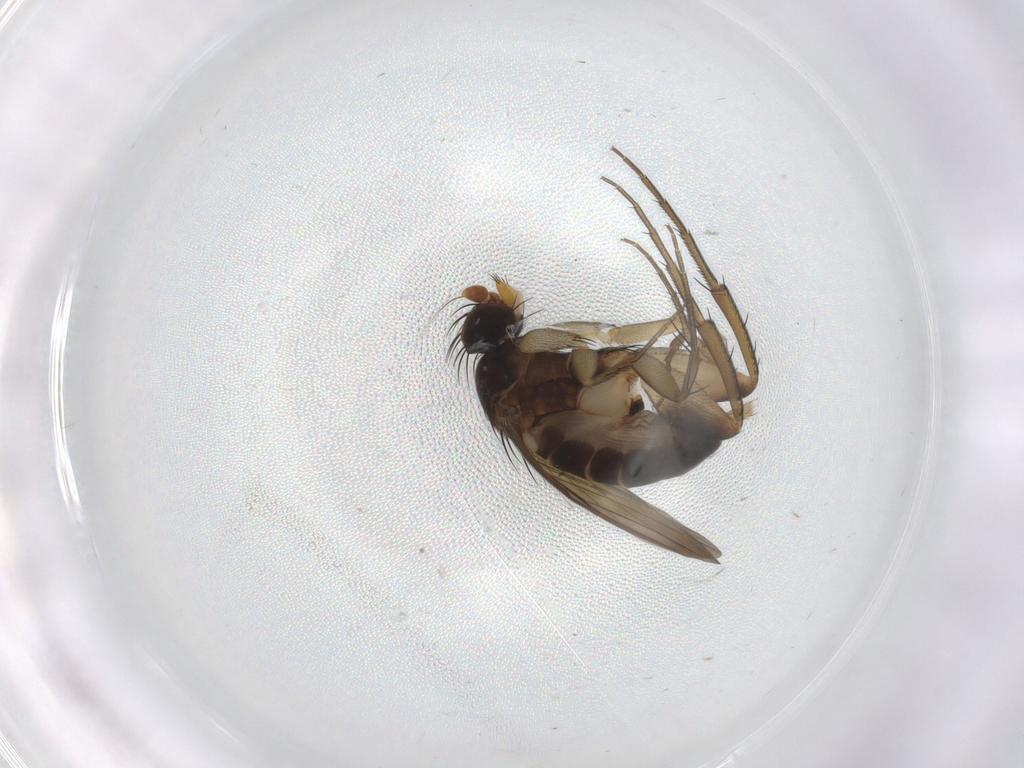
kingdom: Animalia
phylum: Arthropoda
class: Insecta
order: Diptera
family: Phoridae
